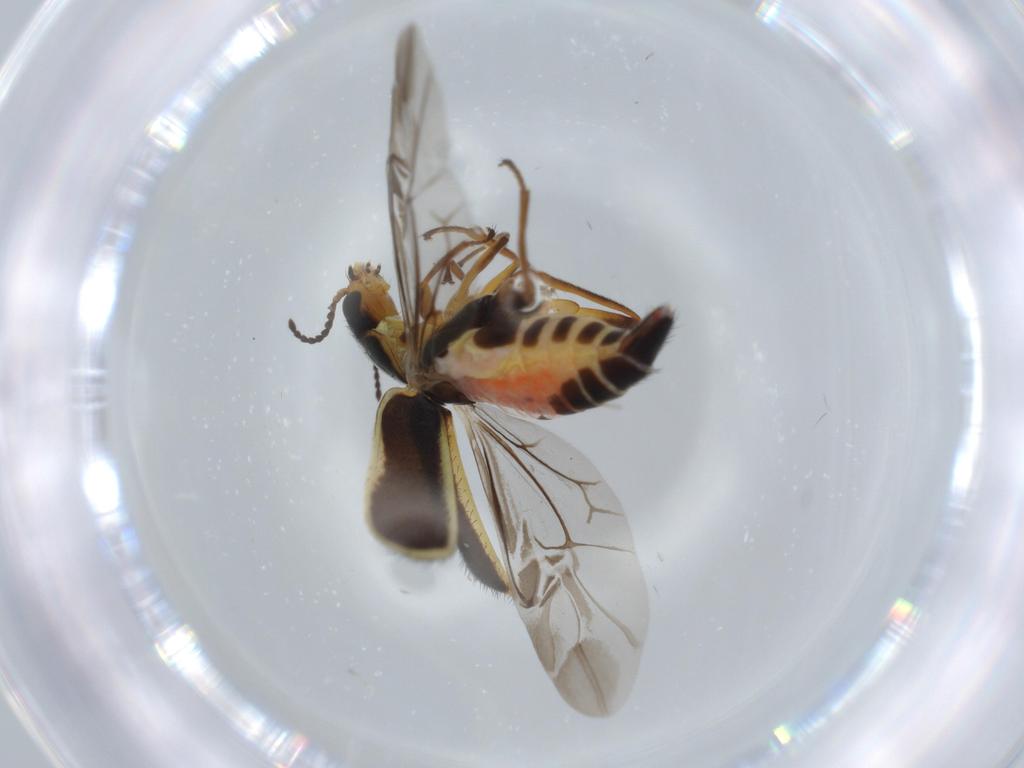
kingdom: Animalia
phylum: Arthropoda
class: Insecta
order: Coleoptera
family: Melyridae
